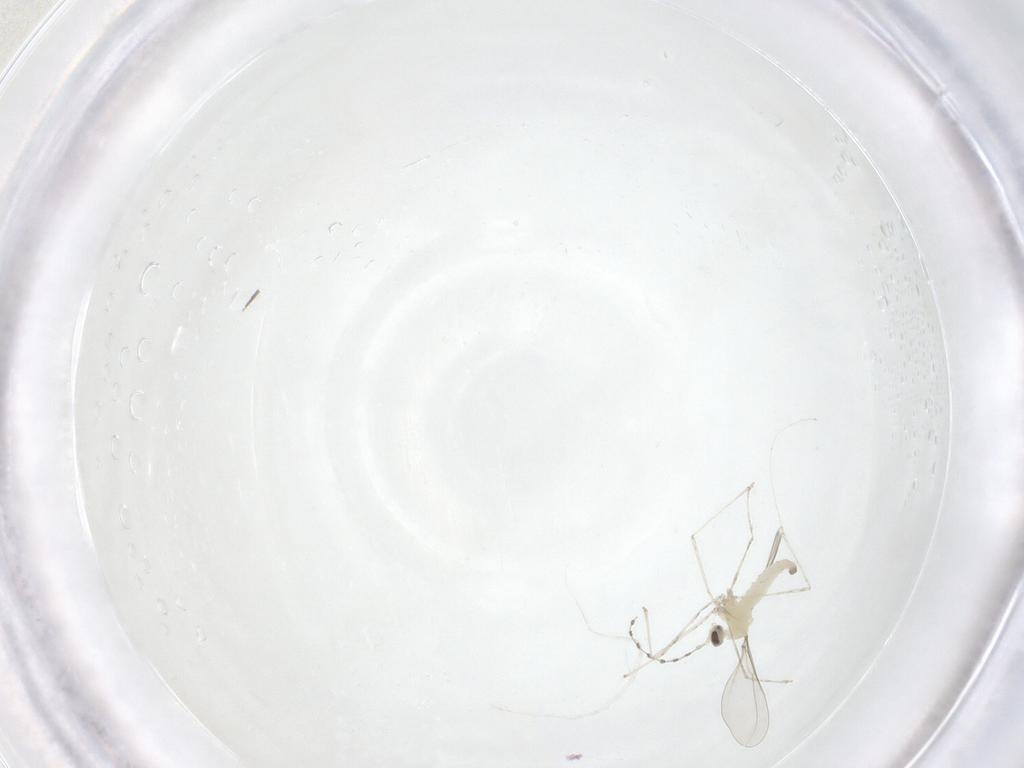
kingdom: Animalia
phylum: Arthropoda
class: Insecta
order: Diptera
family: Cecidomyiidae
